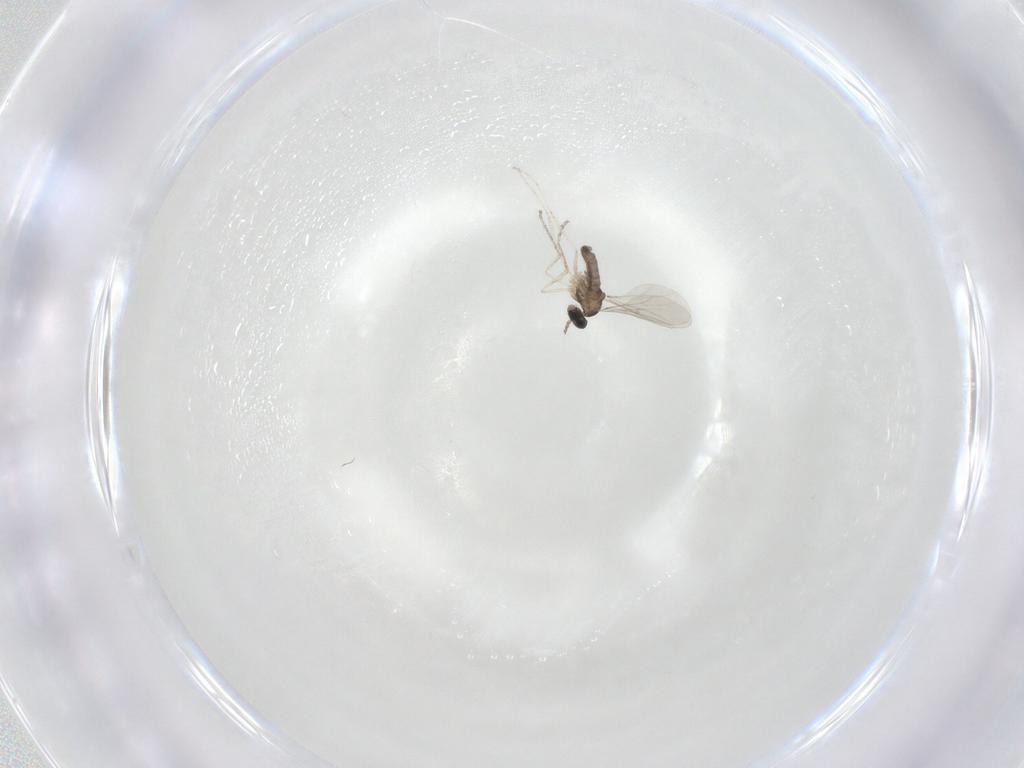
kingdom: Animalia
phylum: Arthropoda
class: Insecta
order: Diptera
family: Cecidomyiidae
